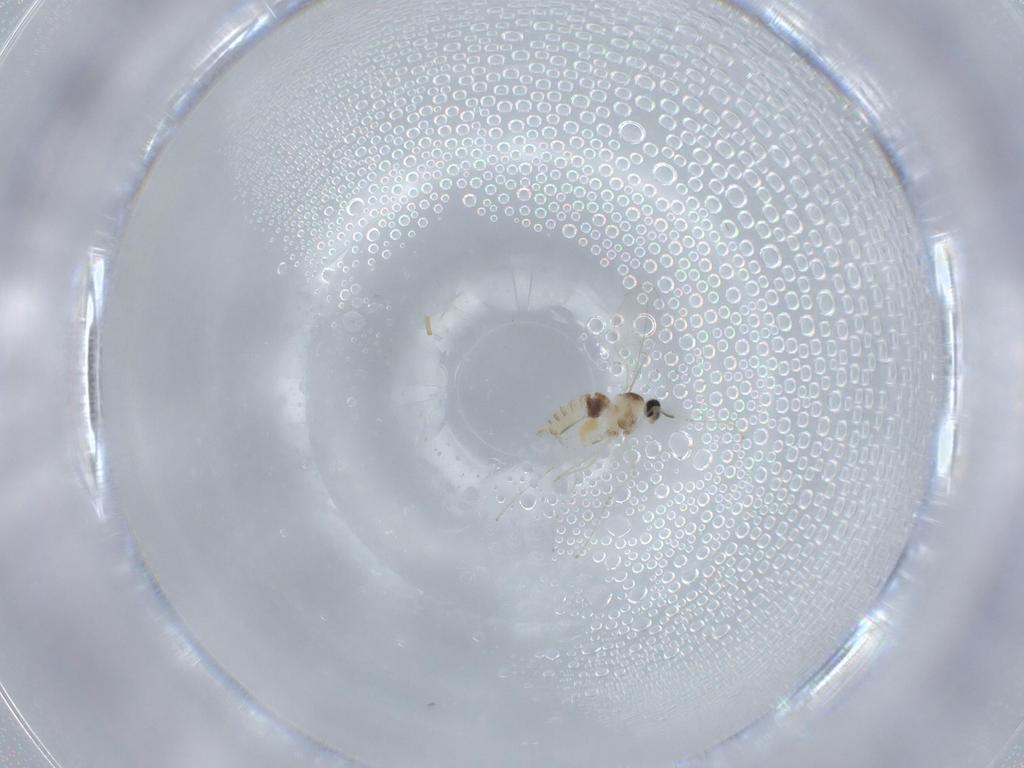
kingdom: Animalia
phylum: Arthropoda
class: Insecta
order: Diptera
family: Cecidomyiidae
